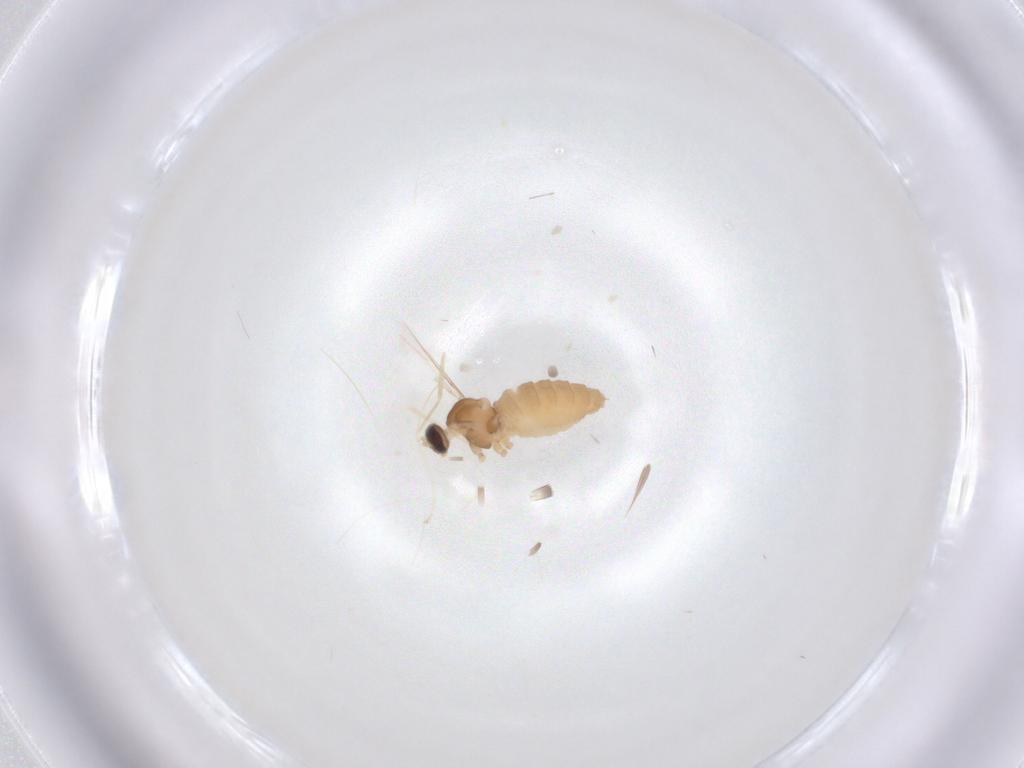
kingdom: Animalia
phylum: Arthropoda
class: Insecta
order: Diptera
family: Cecidomyiidae
